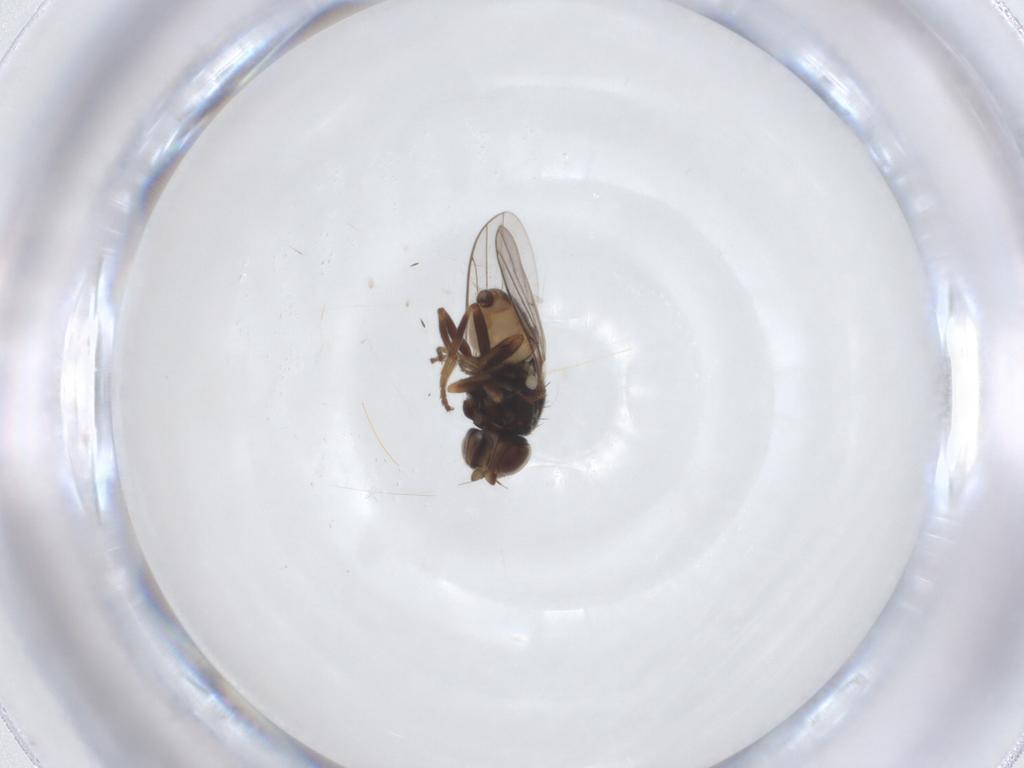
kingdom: Animalia
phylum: Arthropoda
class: Insecta
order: Diptera
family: Chloropidae
